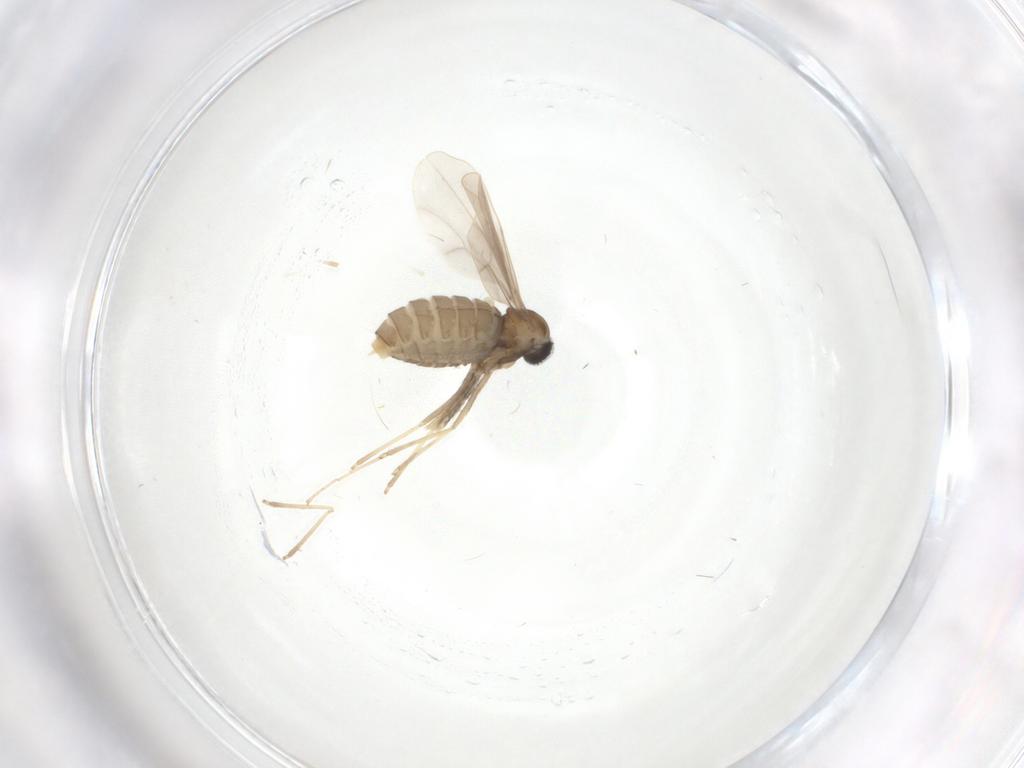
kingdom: Animalia
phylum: Arthropoda
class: Insecta
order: Diptera
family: Cecidomyiidae
